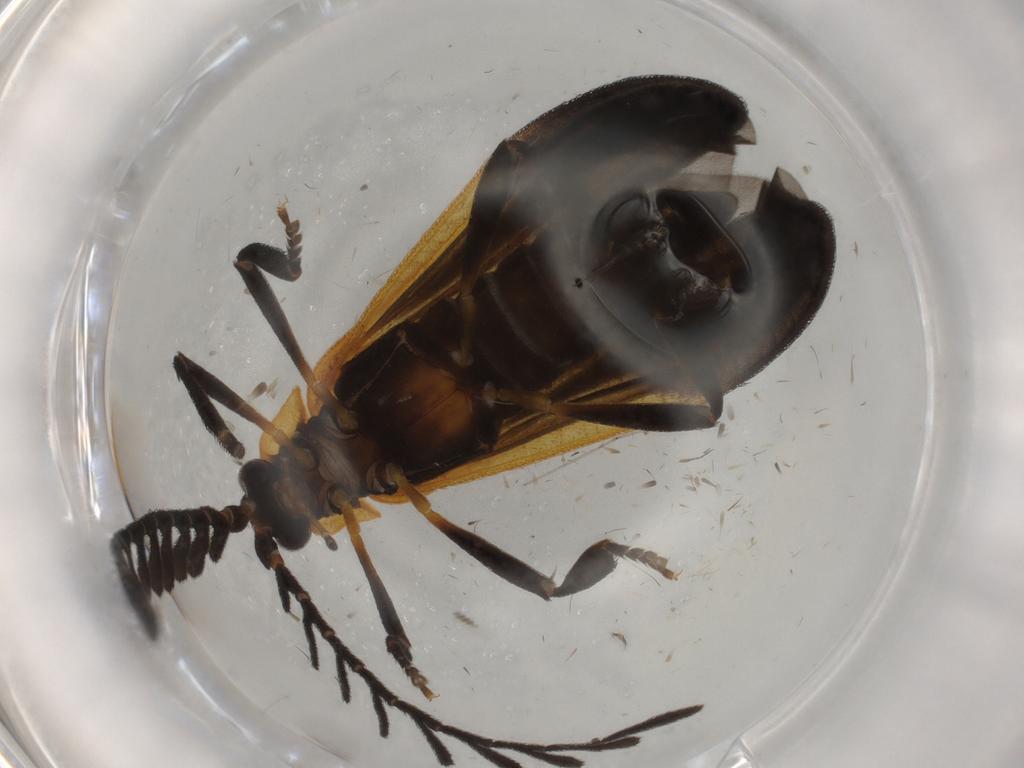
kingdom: Animalia
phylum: Arthropoda
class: Insecta
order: Coleoptera
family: Lycidae
